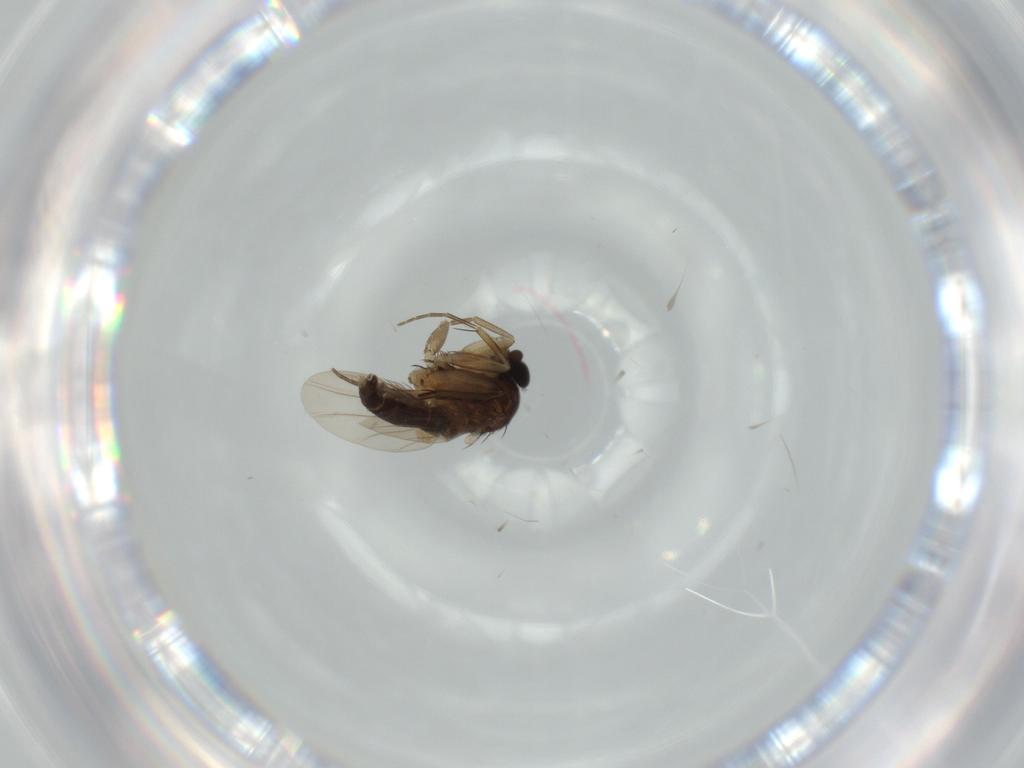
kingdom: Animalia
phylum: Arthropoda
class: Insecta
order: Diptera
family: Phoridae
